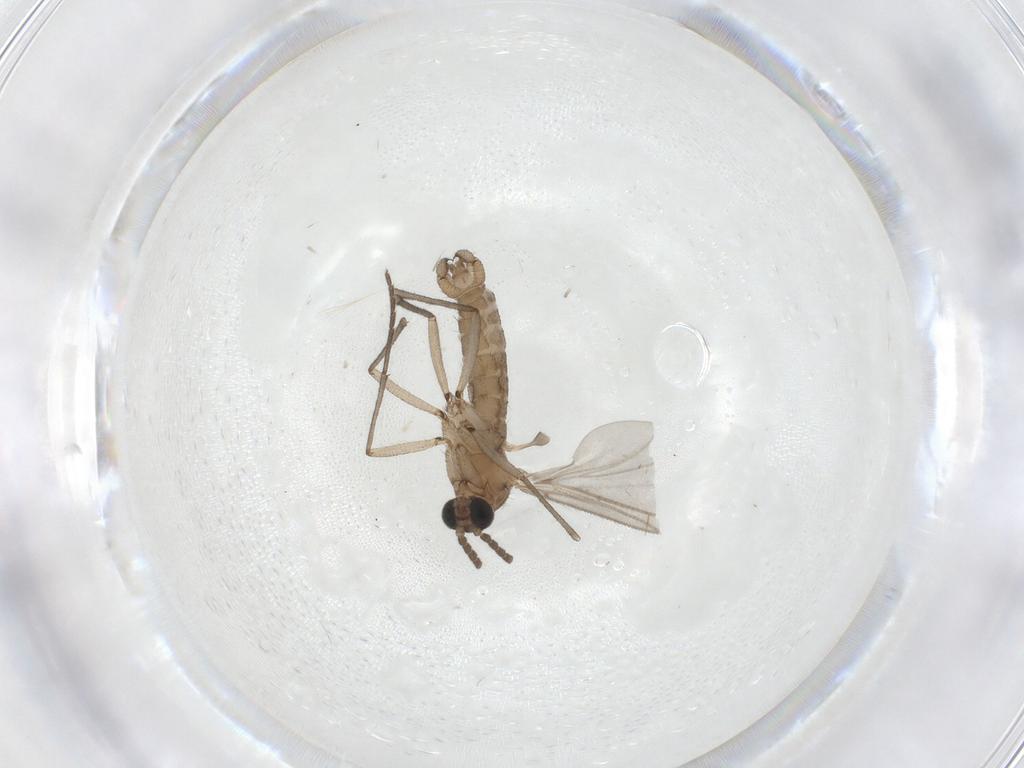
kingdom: Animalia
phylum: Arthropoda
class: Insecta
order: Diptera
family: Sciaridae
